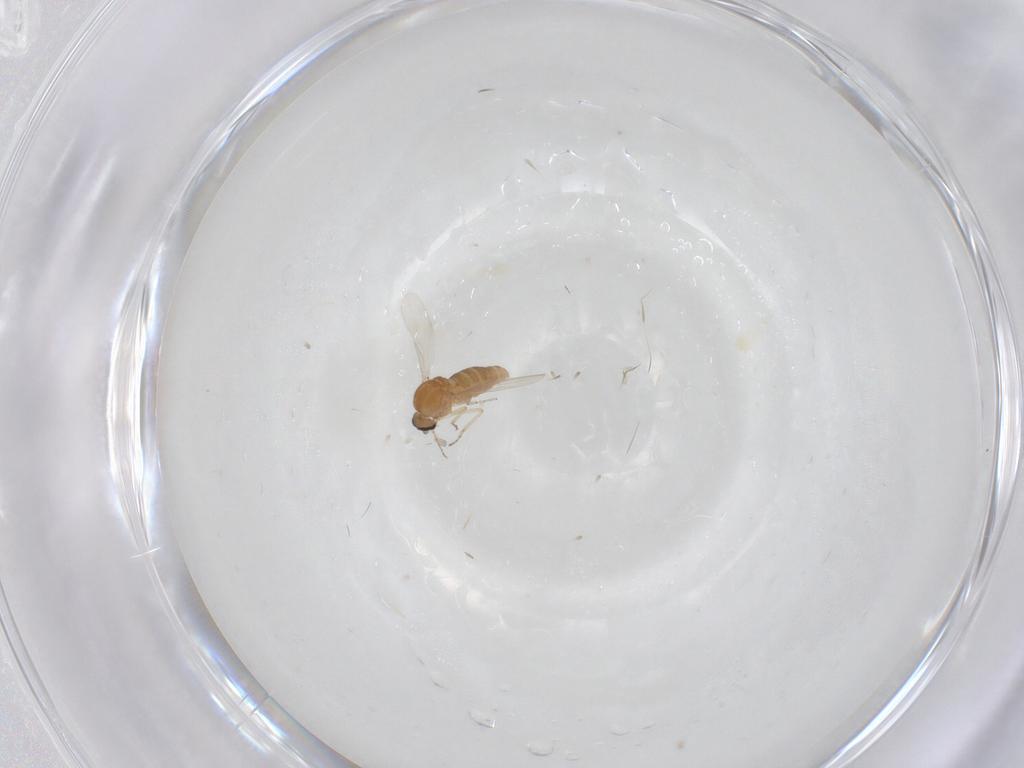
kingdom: Animalia
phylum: Arthropoda
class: Insecta
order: Diptera
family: Ceratopogonidae
